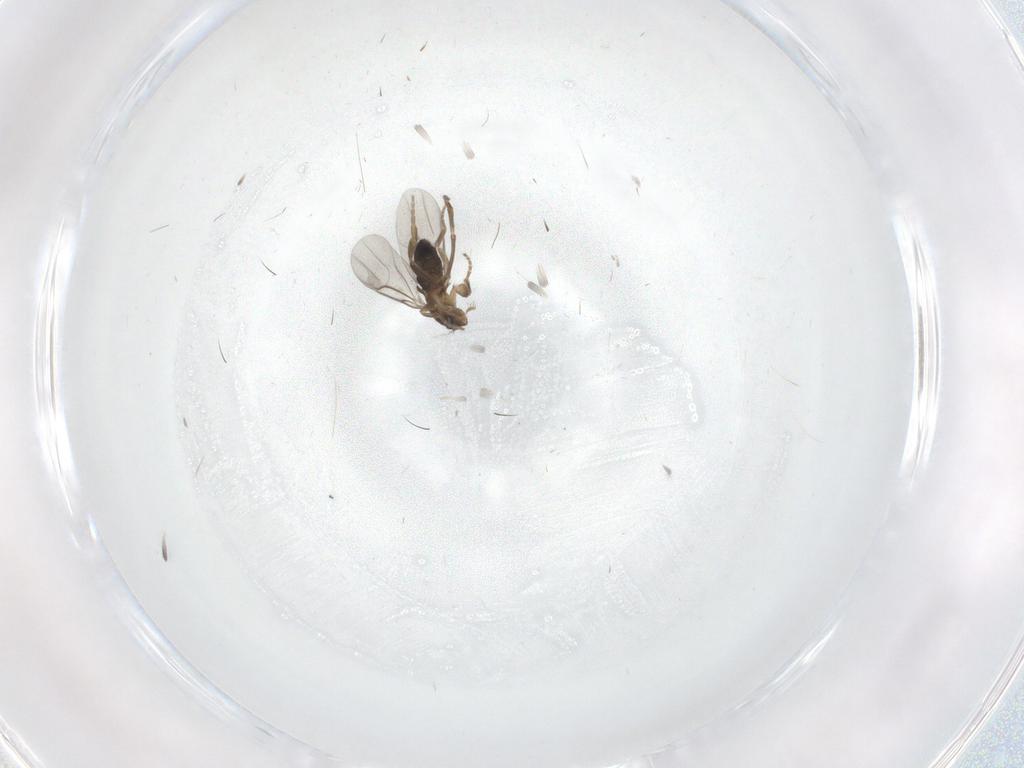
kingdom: Animalia
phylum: Arthropoda
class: Insecta
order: Diptera
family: Phoridae
